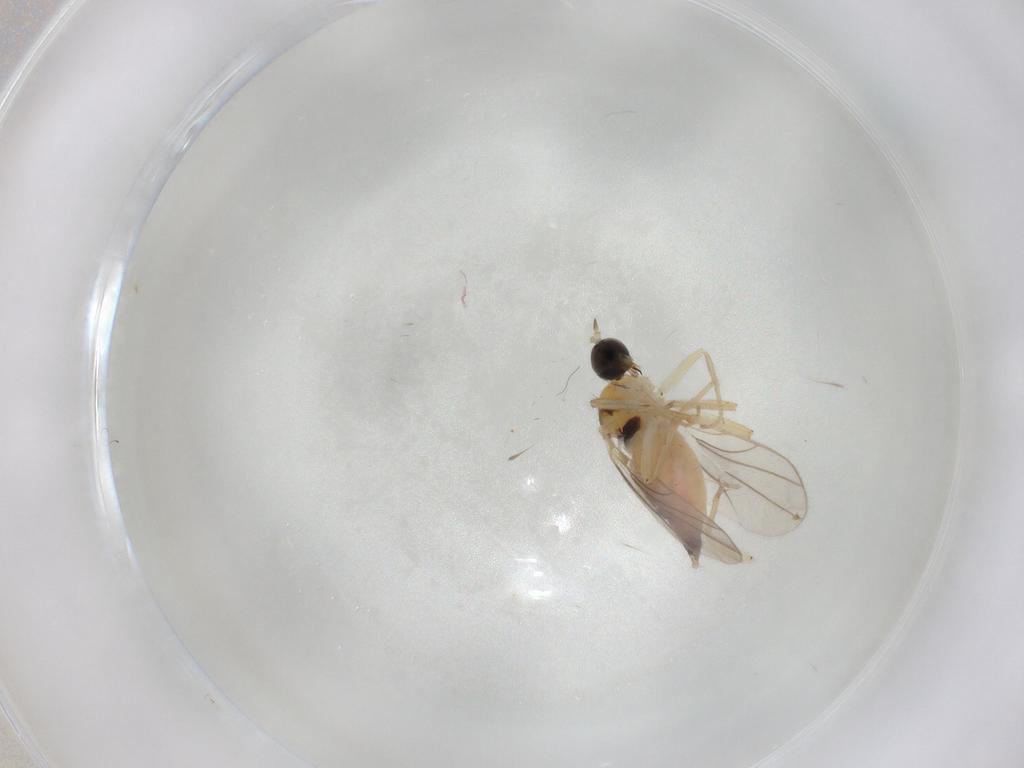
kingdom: Animalia
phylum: Arthropoda
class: Insecta
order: Diptera
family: Hybotidae
